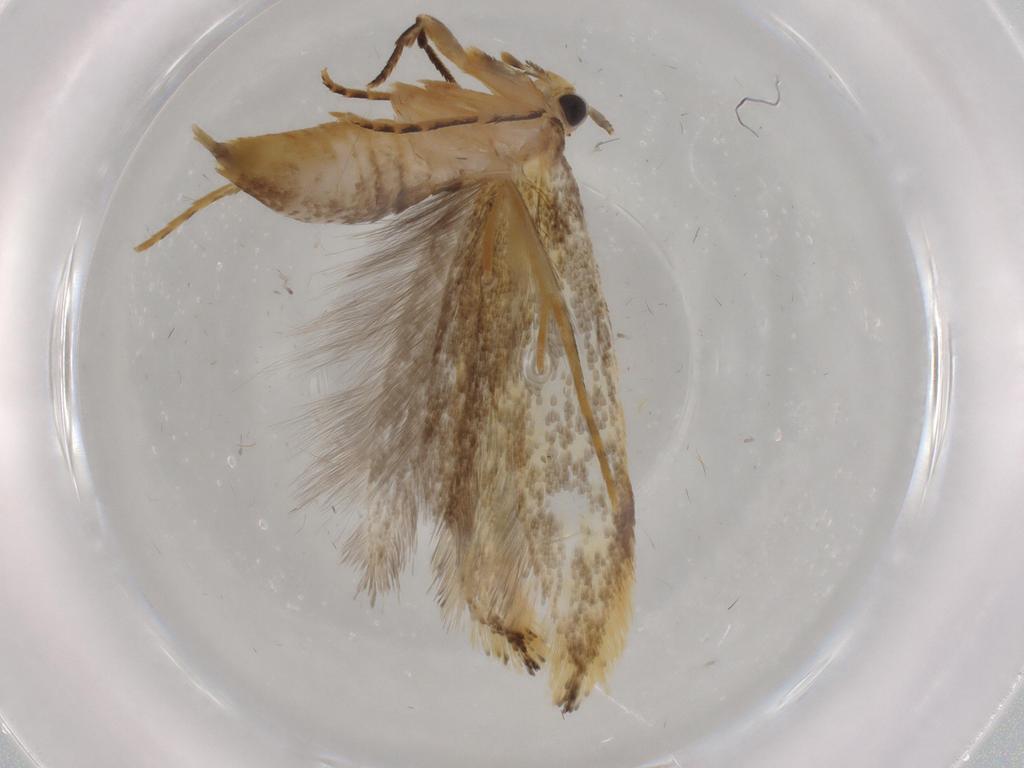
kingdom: Animalia
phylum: Arthropoda
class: Insecta
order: Lepidoptera
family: Tineidae
